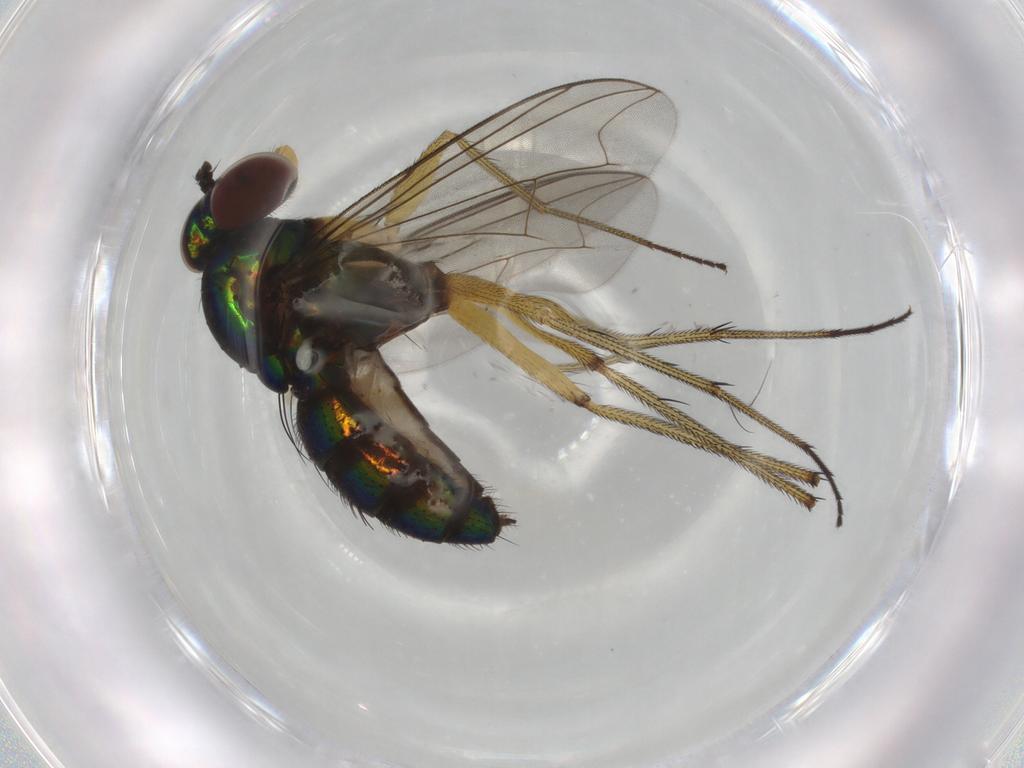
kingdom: Animalia
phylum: Arthropoda
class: Insecta
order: Diptera
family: Dolichopodidae
